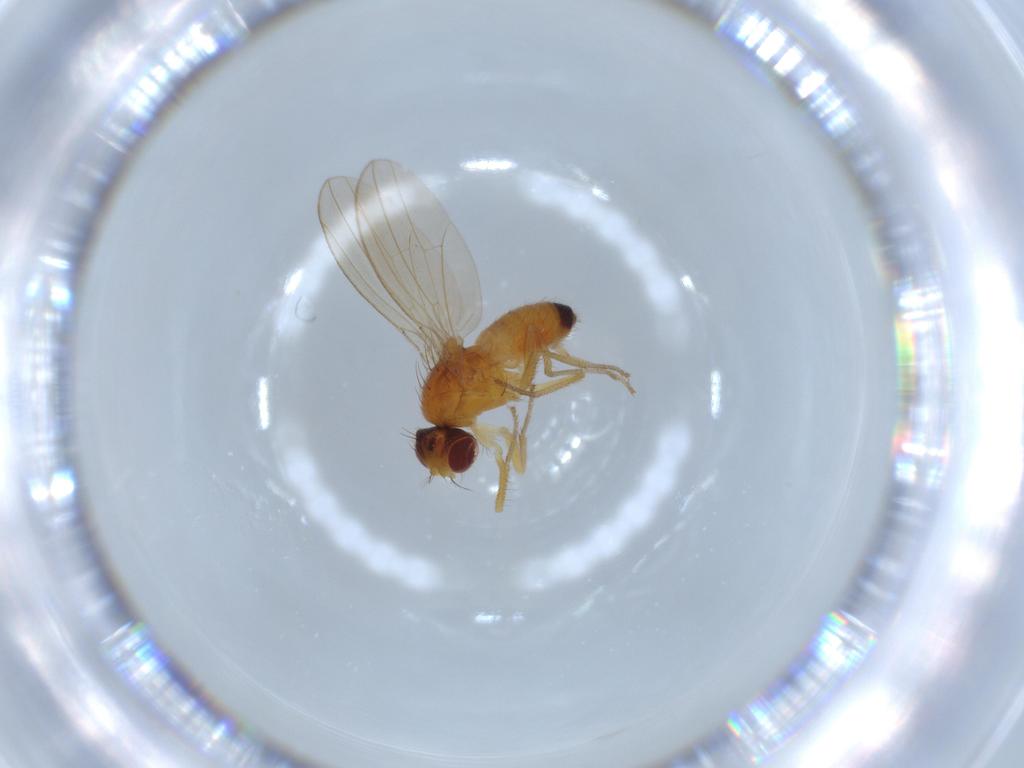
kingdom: Animalia
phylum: Arthropoda
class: Insecta
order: Diptera
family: Drosophilidae
